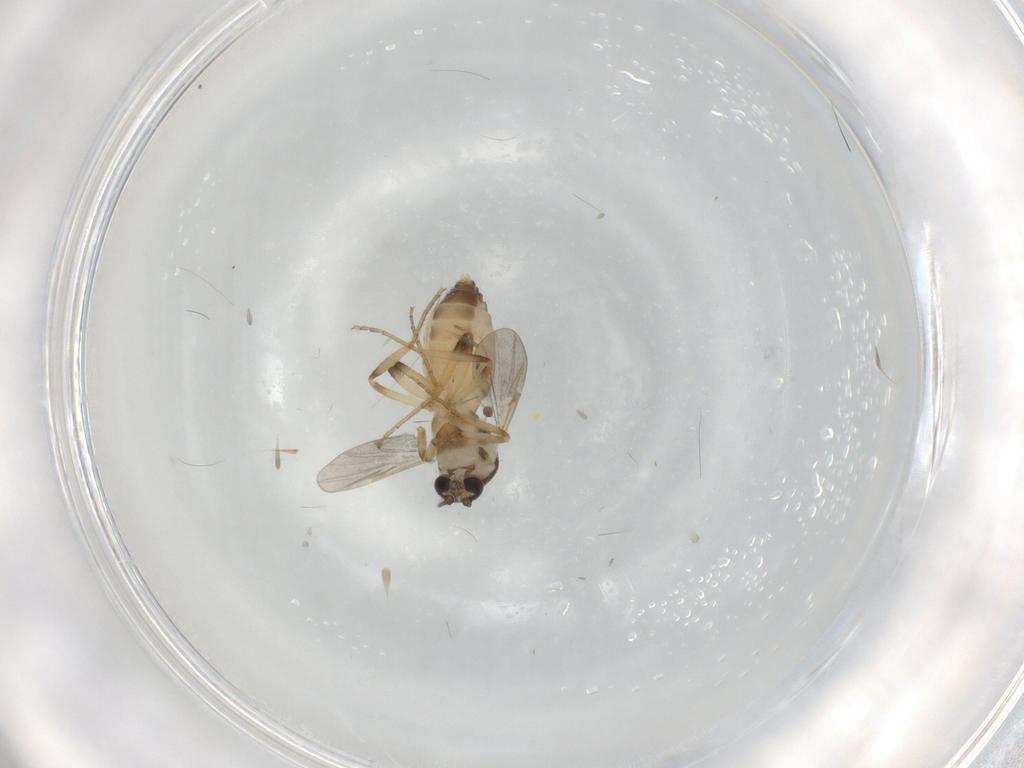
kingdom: Animalia
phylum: Arthropoda
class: Insecta
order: Diptera
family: Ceratopogonidae
